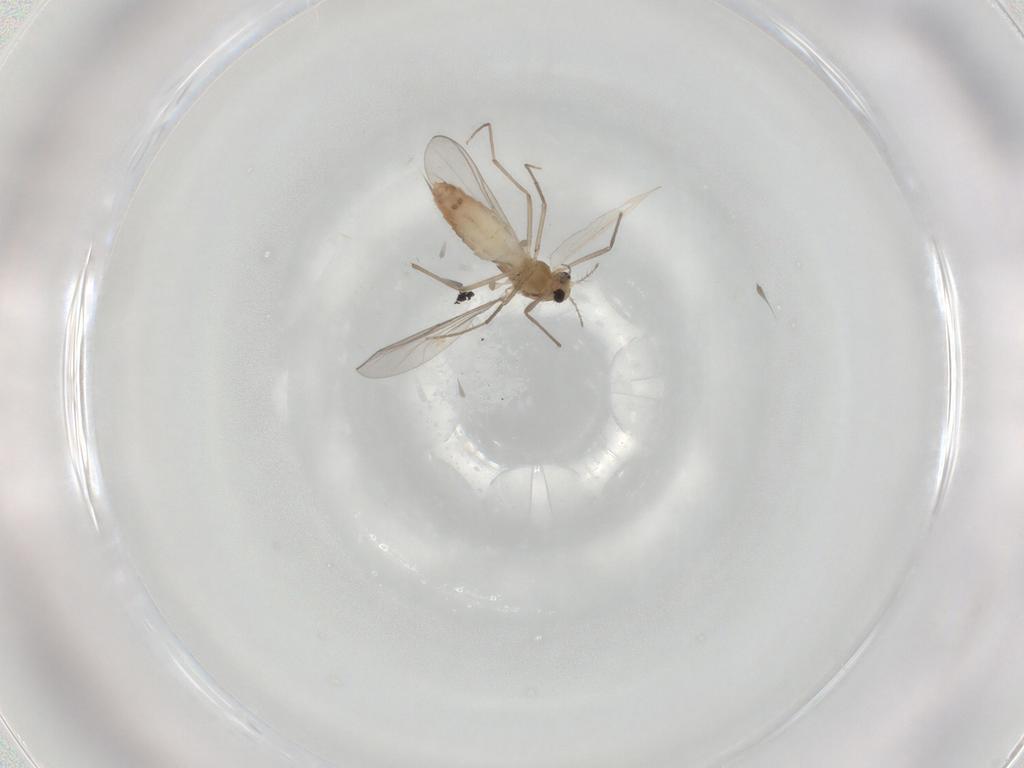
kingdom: Animalia
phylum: Arthropoda
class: Insecta
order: Diptera
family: Chironomidae
